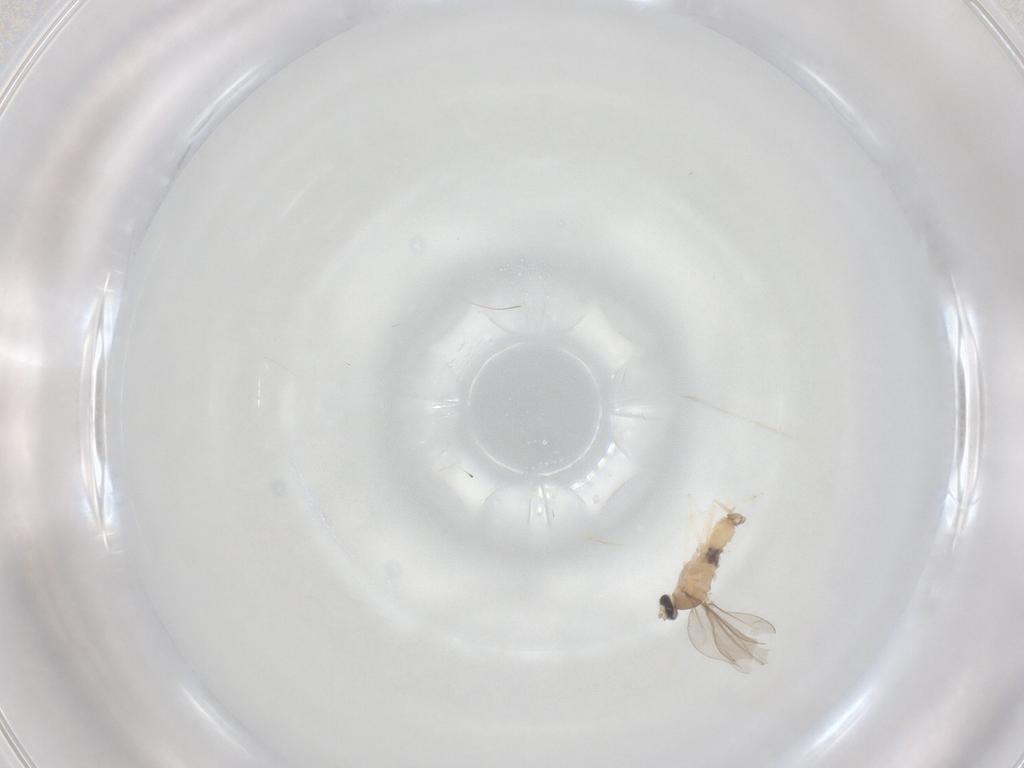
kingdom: Animalia
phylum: Arthropoda
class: Insecta
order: Diptera
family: Cecidomyiidae
